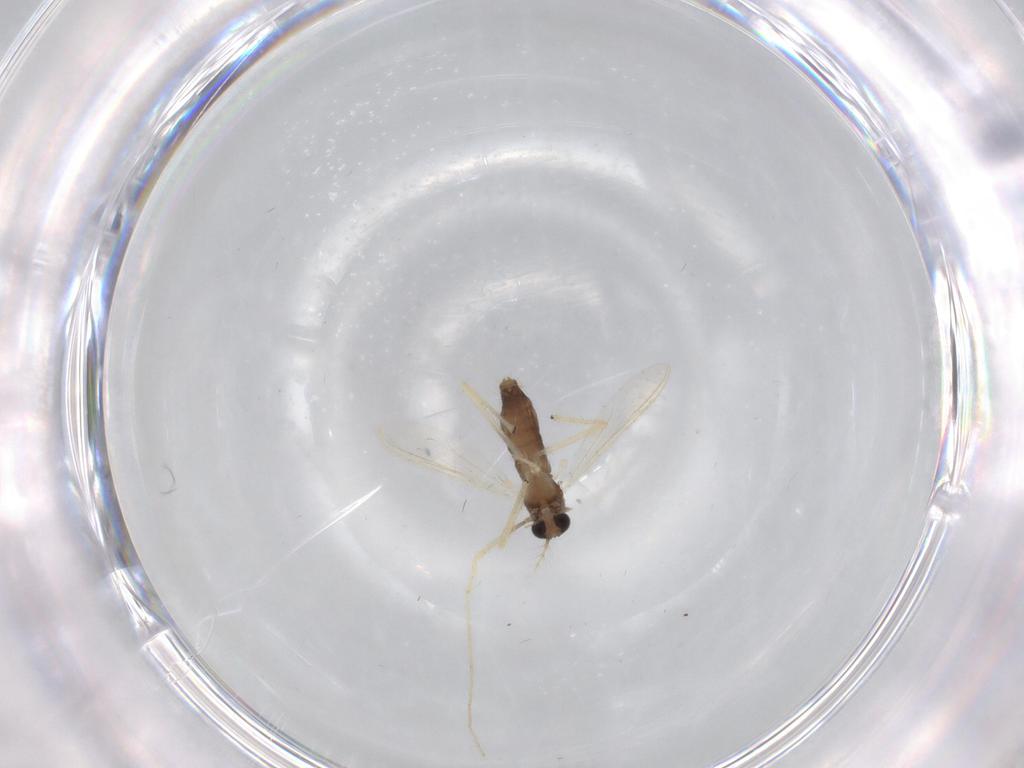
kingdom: Animalia
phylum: Arthropoda
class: Insecta
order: Diptera
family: Chironomidae
